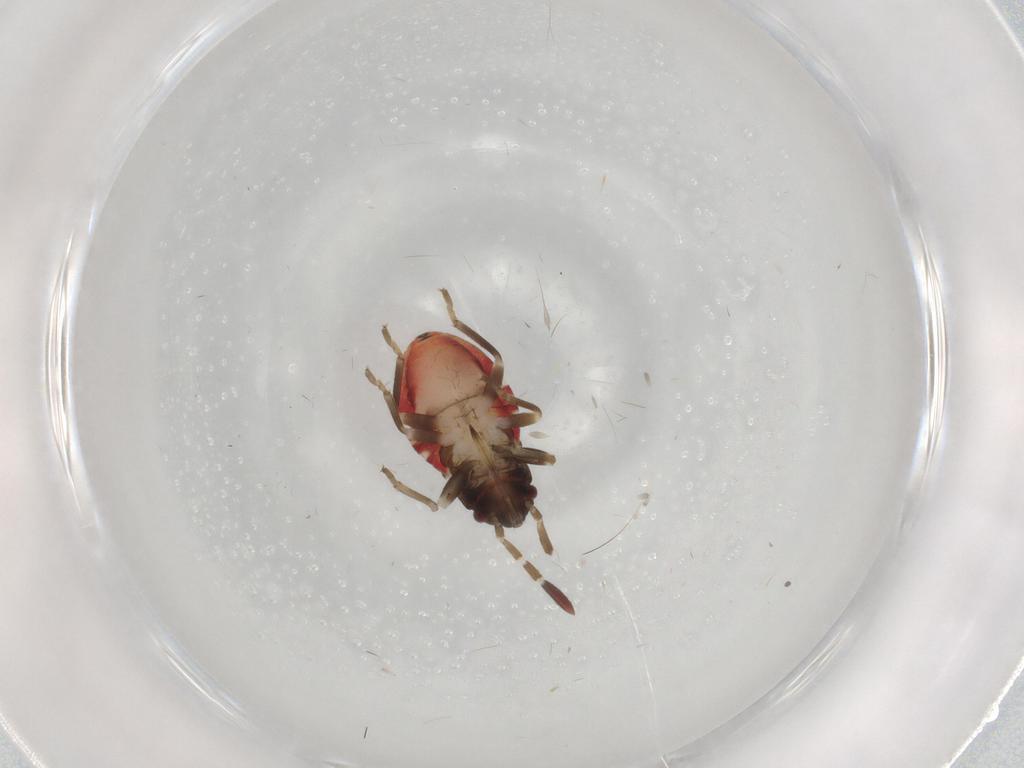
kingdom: Animalia
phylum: Arthropoda
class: Insecta
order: Hemiptera
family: Rhyparochromidae
